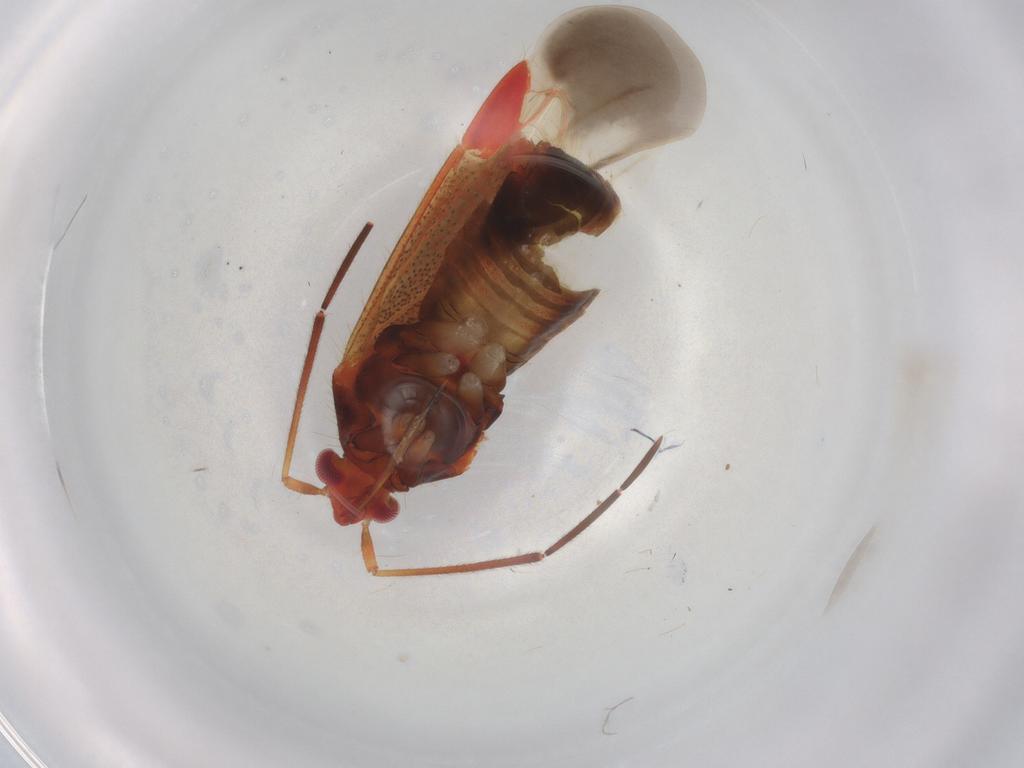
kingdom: Animalia
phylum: Arthropoda
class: Insecta
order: Hemiptera
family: Miridae
